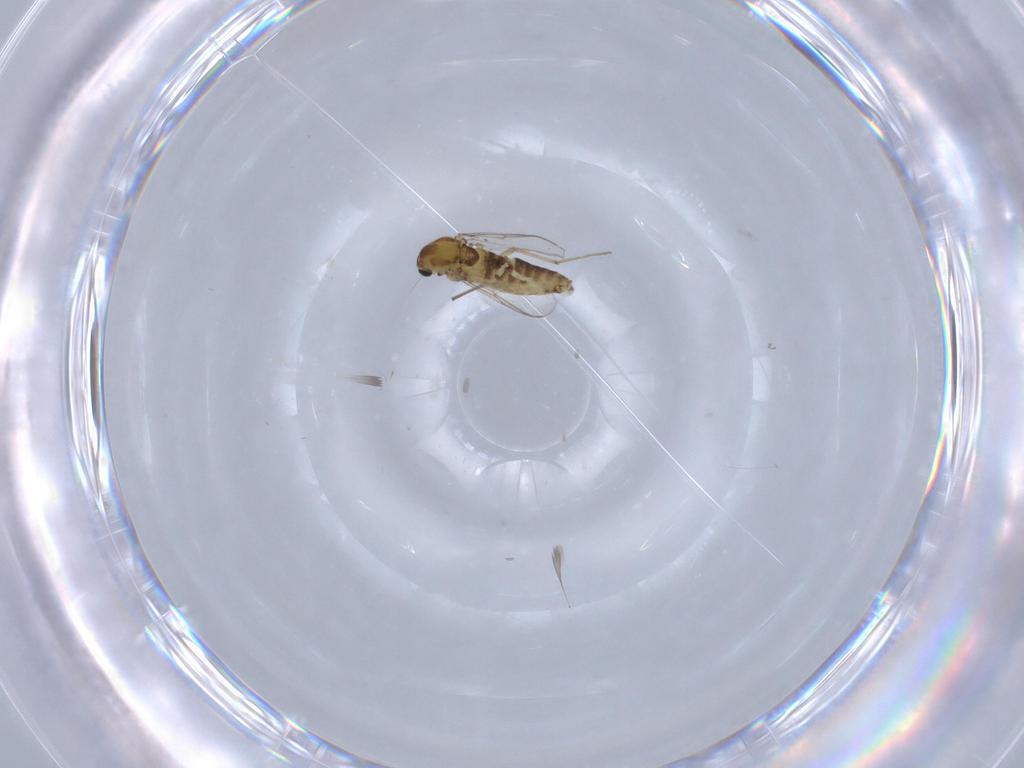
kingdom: Animalia
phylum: Arthropoda
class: Insecta
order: Diptera
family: Chironomidae
